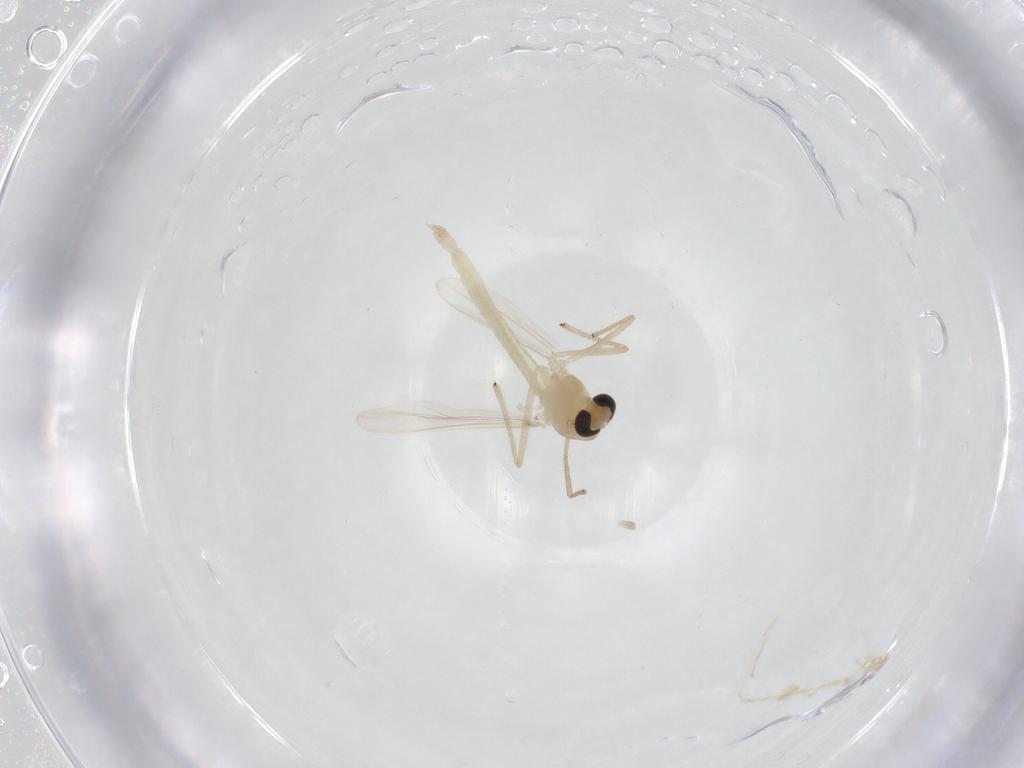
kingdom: Animalia
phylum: Arthropoda
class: Insecta
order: Diptera
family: Chironomidae
